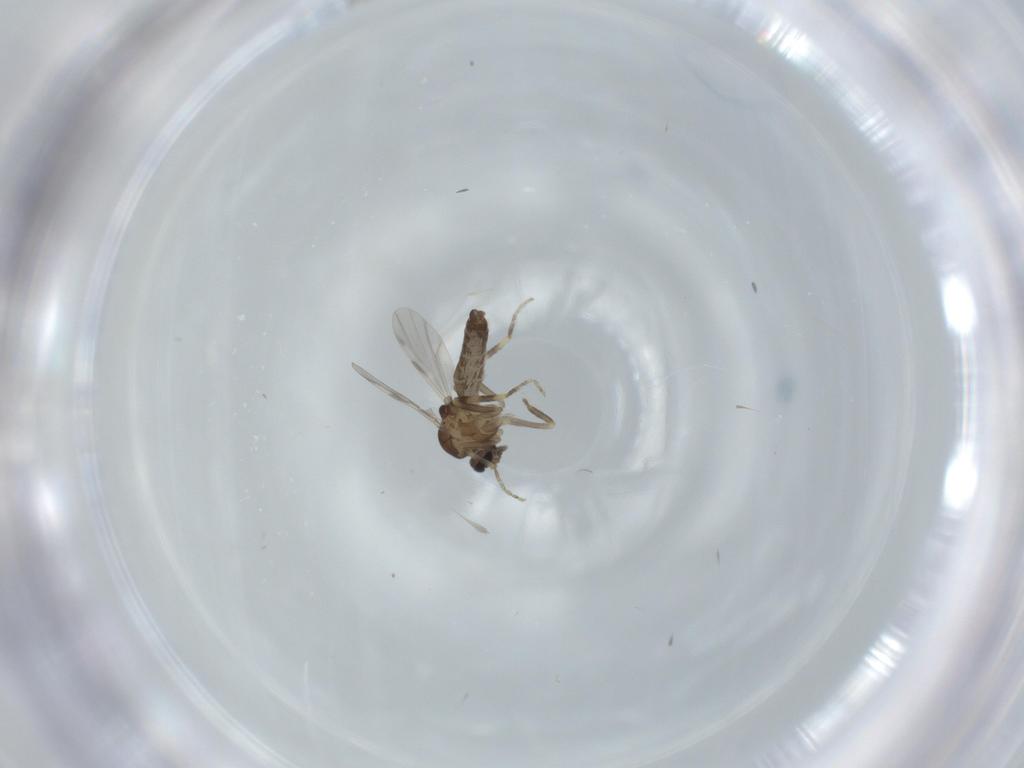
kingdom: Animalia
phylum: Arthropoda
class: Insecta
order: Diptera
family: Ceratopogonidae
